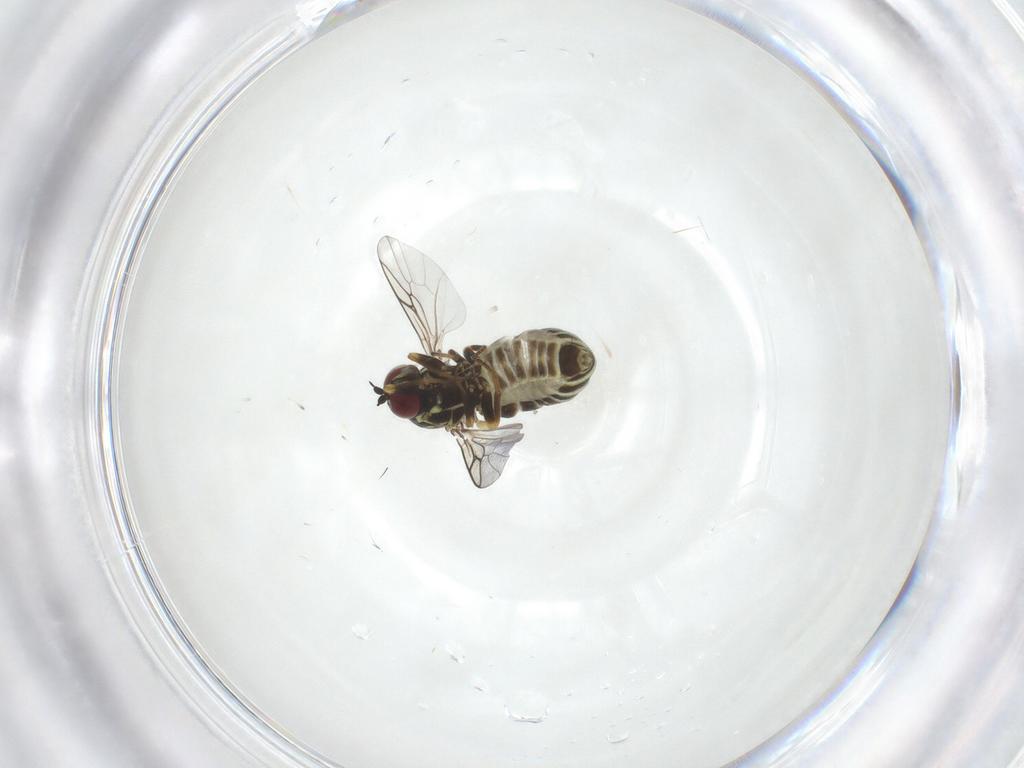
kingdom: Animalia
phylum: Arthropoda
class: Insecta
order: Diptera
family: Mythicomyiidae
